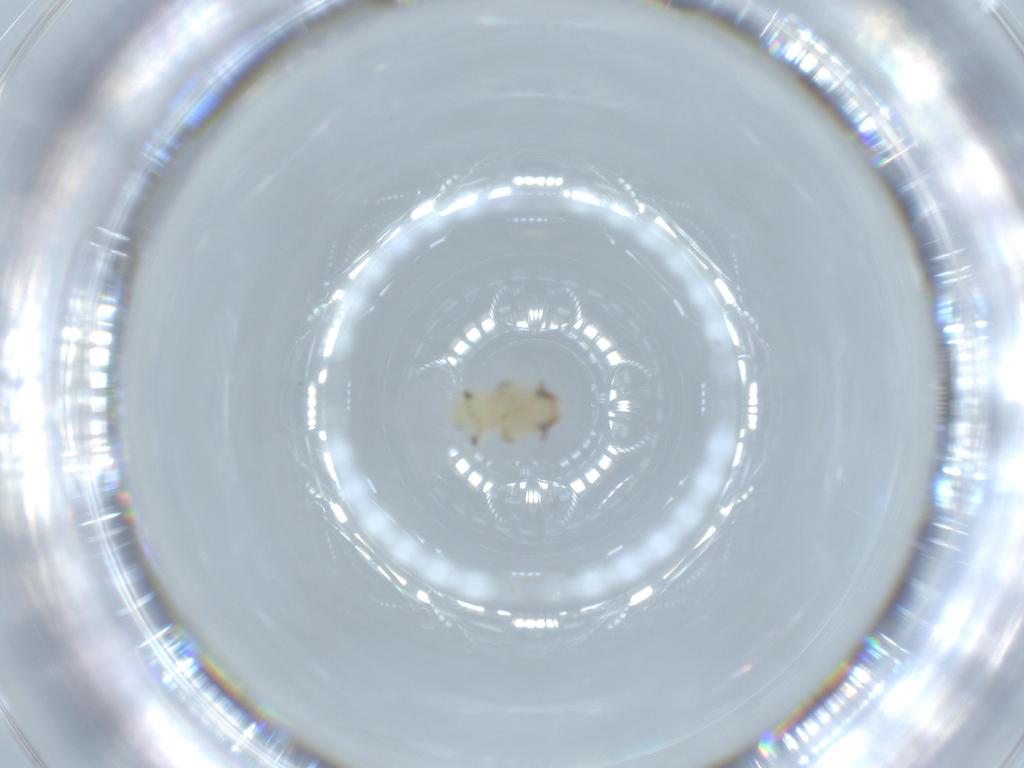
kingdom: Animalia
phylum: Arthropoda
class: Insecta
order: Hemiptera
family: Nogodinidae
